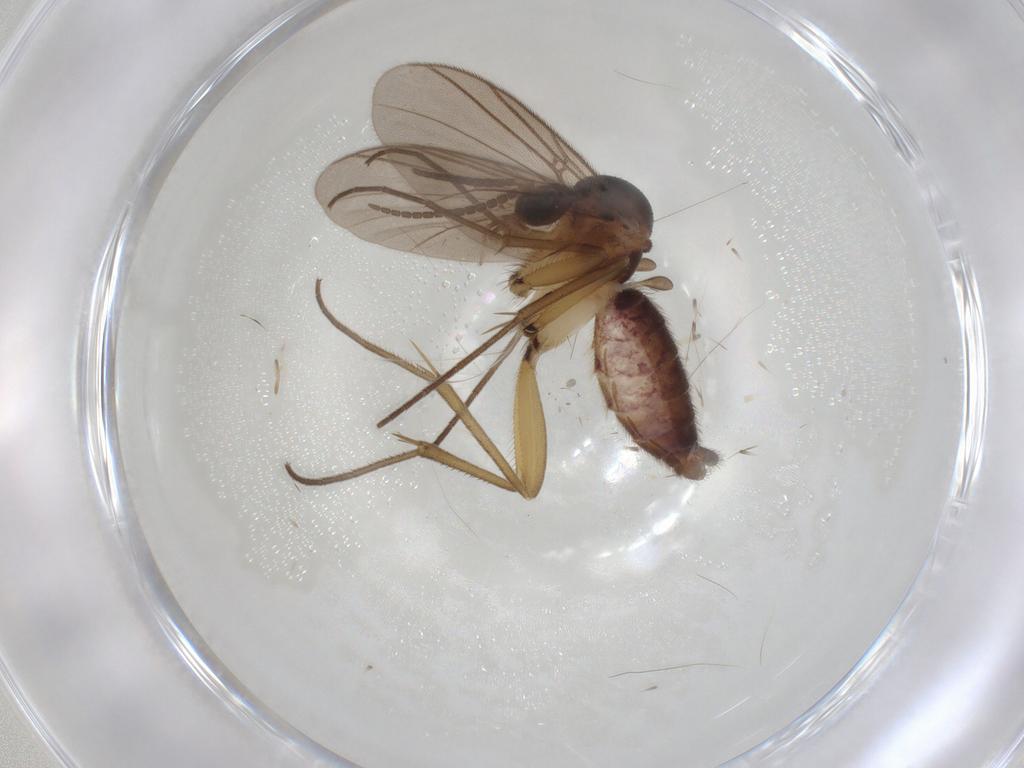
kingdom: Animalia
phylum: Arthropoda
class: Insecta
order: Diptera
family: Mycetophilidae
